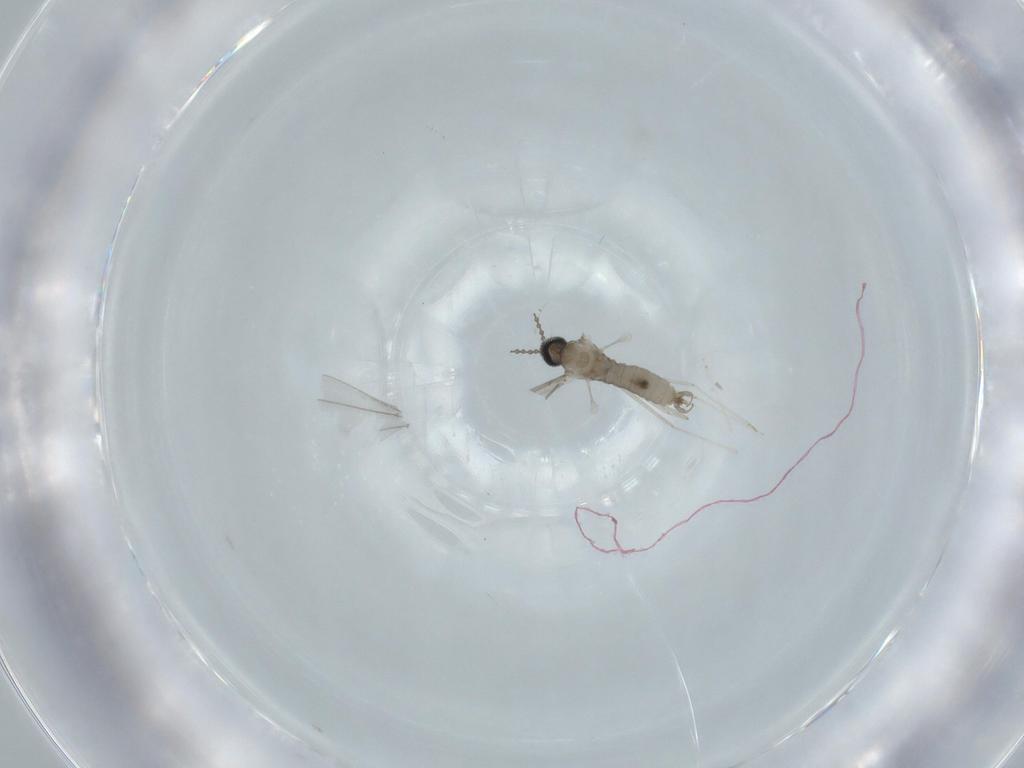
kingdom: Animalia
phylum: Arthropoda
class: Insecta
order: Diptera
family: Cecidomyiidae
